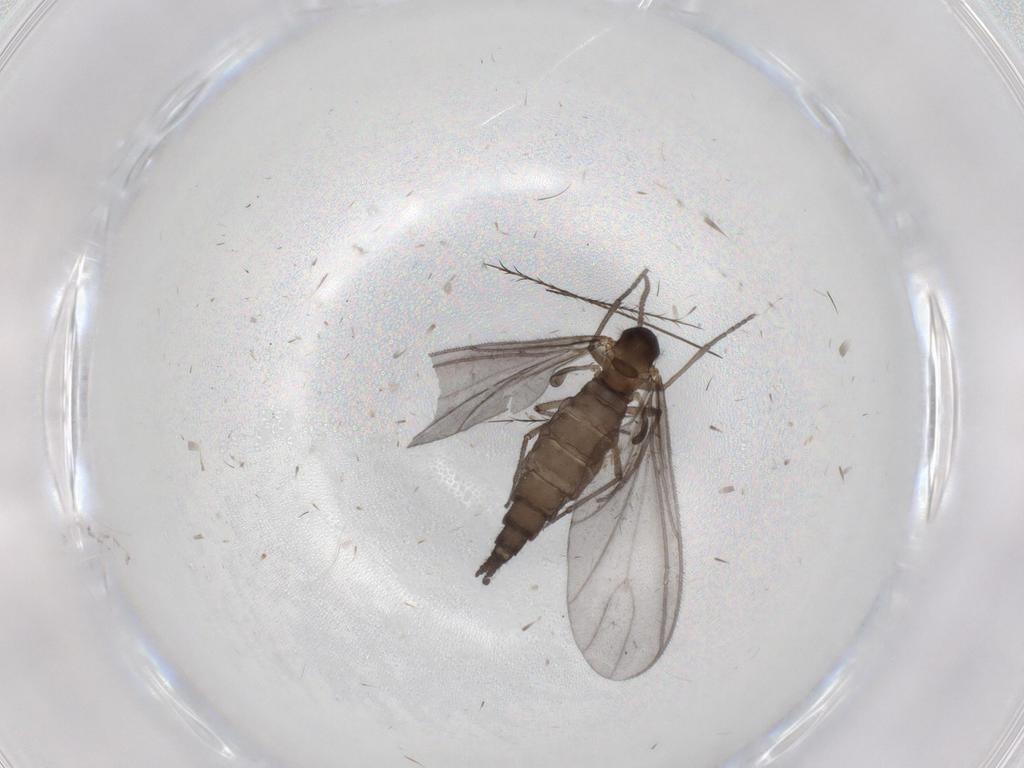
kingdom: Animalia
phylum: Arthropoda
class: Insecta
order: Diptera
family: Sciaridae
